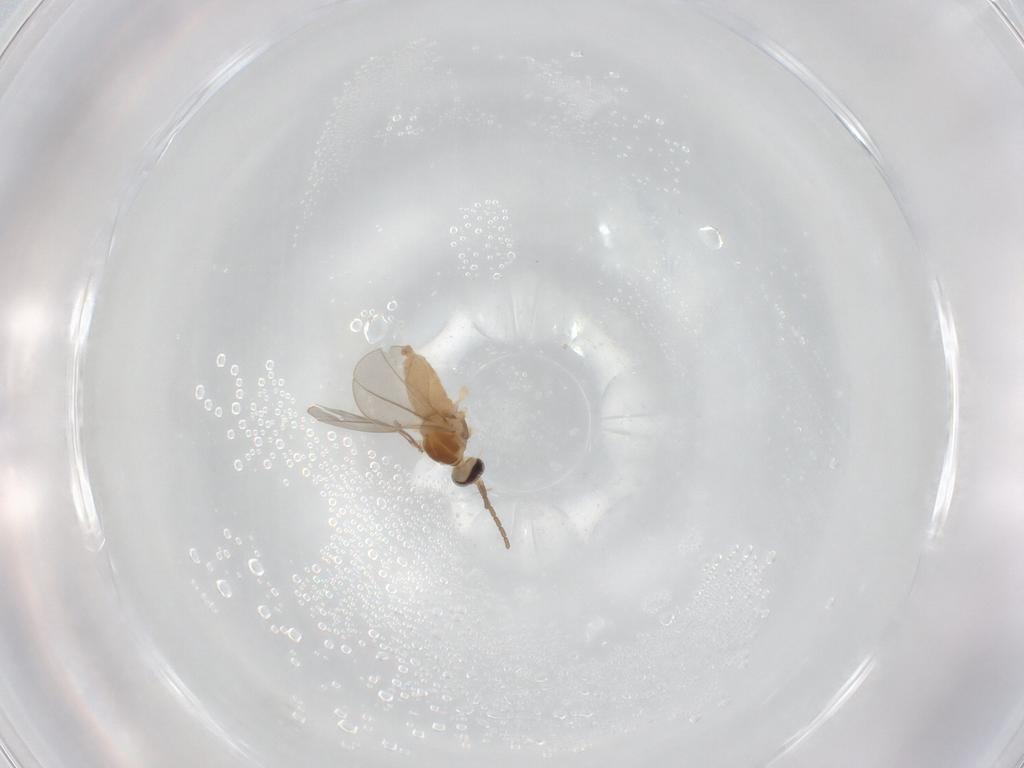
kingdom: Animalia
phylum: Arthropoda
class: Insecta
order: Diptera
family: Cecidomyiidae
